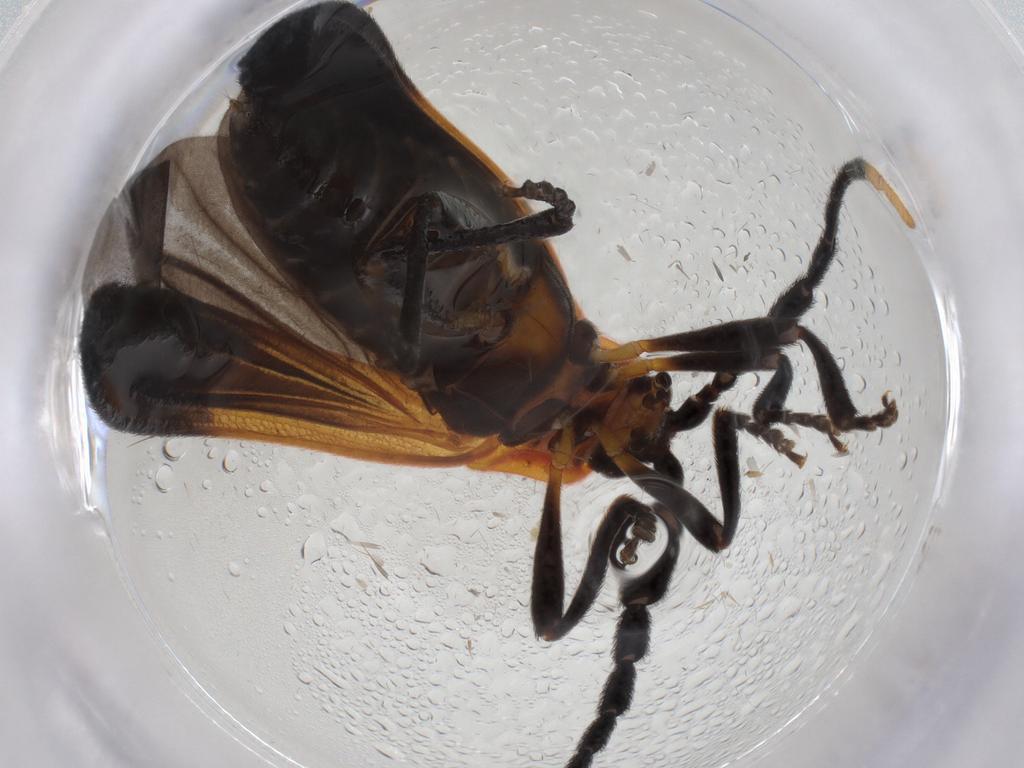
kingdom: Animalia
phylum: Arthropoda
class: Insecta
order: Coleoptera
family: Lycidae
